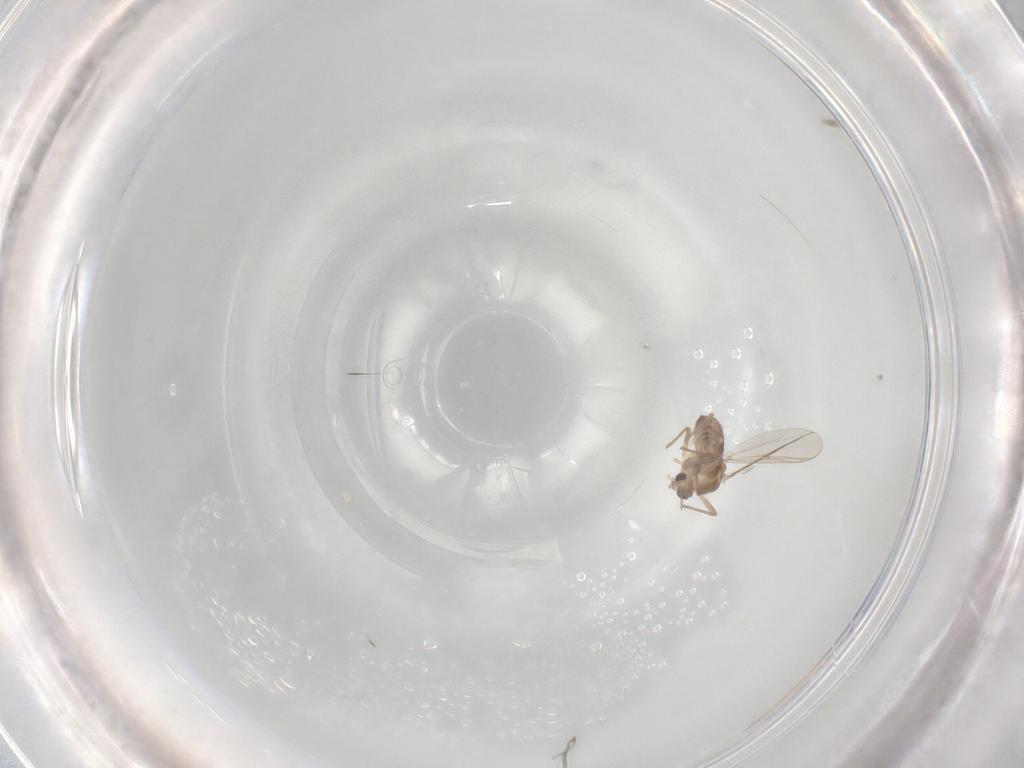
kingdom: Animalia
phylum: Arthropoda
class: Insecta
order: Diptera
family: Chironomidae
